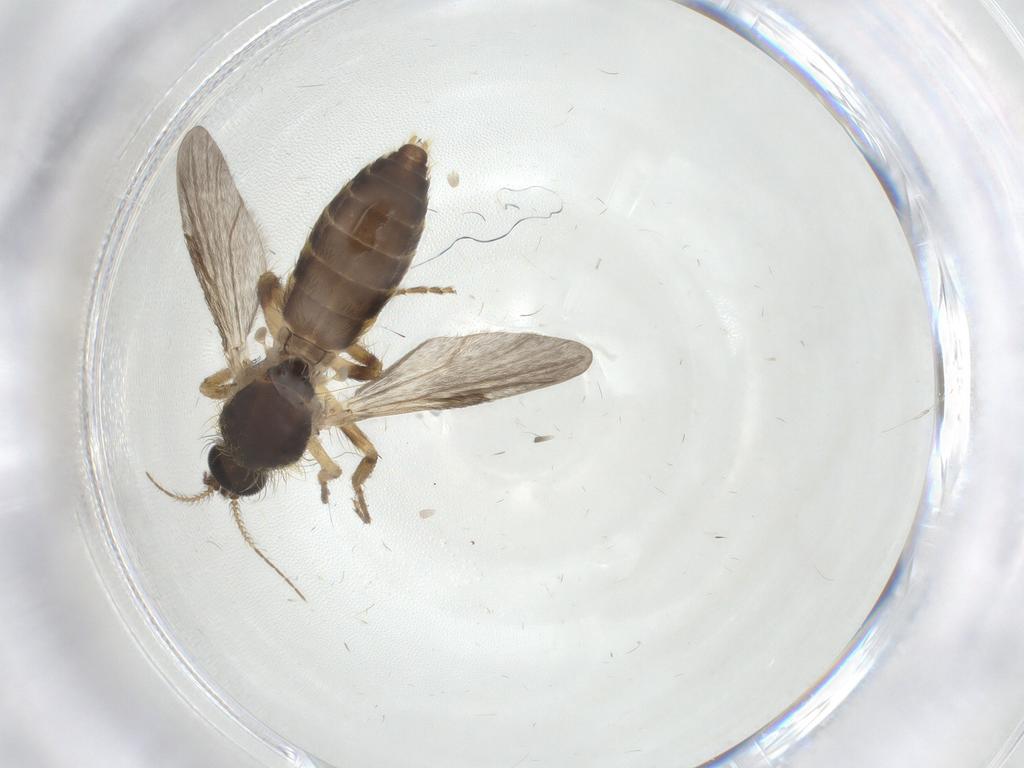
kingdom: Animalia
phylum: Arthropoda
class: Insecta
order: Diptera
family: Ceratopogonidae
